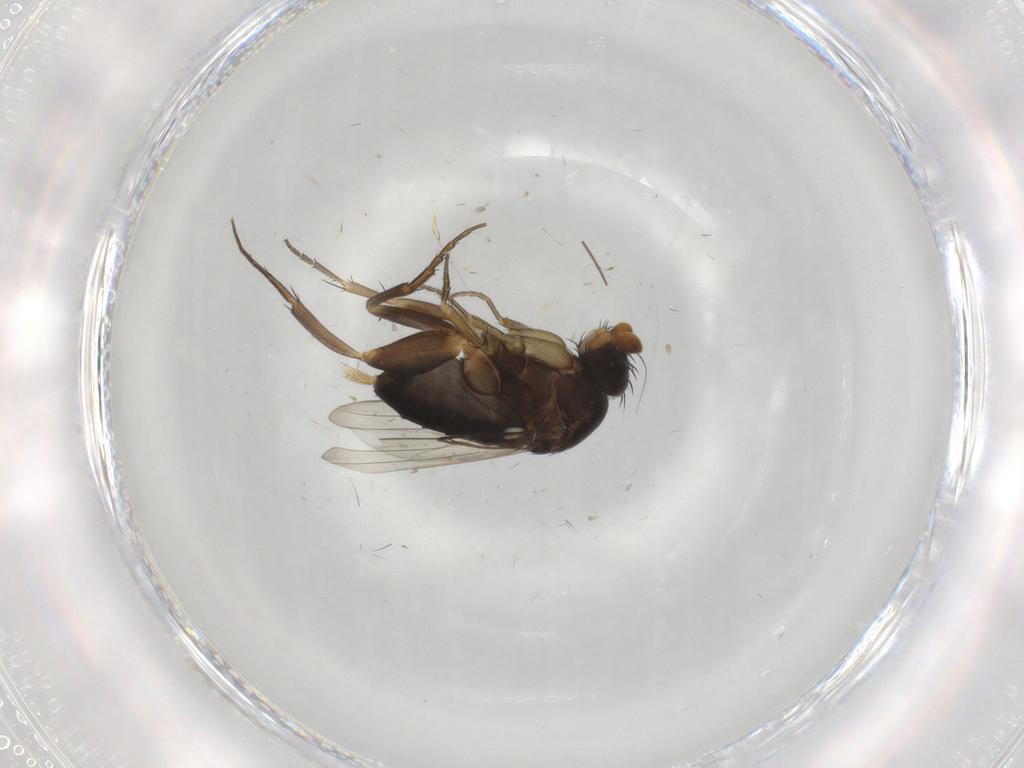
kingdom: Animalia
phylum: Arthropoda
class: Insecta
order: Diptera
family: Phoridae
